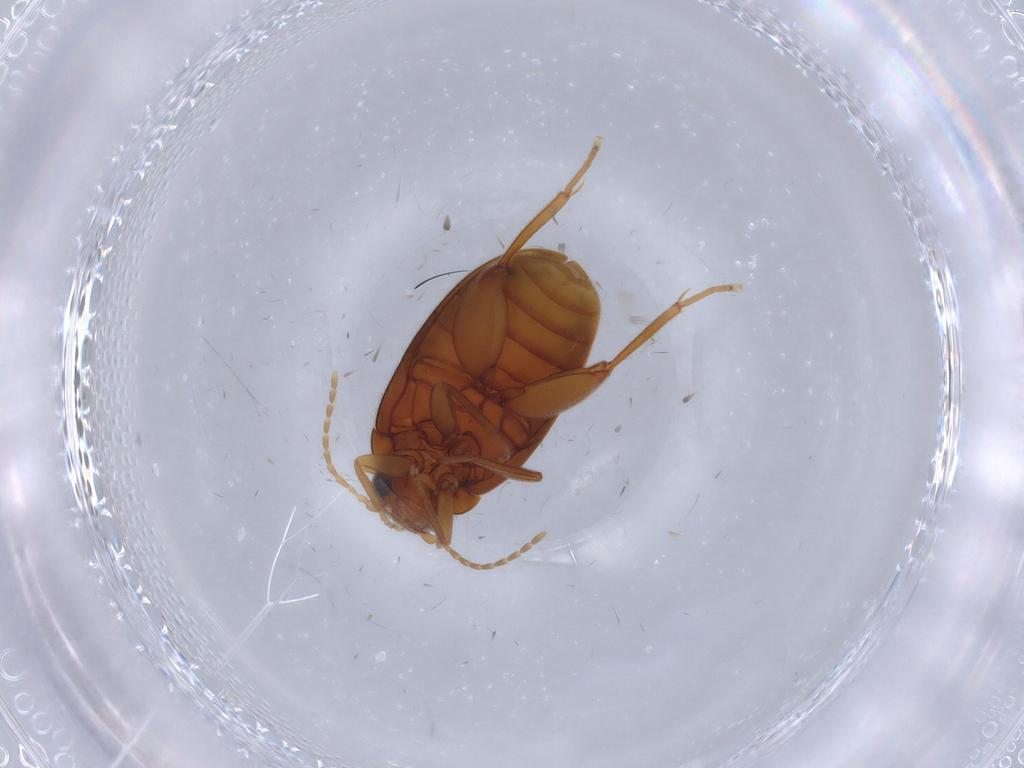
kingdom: Animalia
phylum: Arthropoda
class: Insecta
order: Coleoptera
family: Scirtidae
